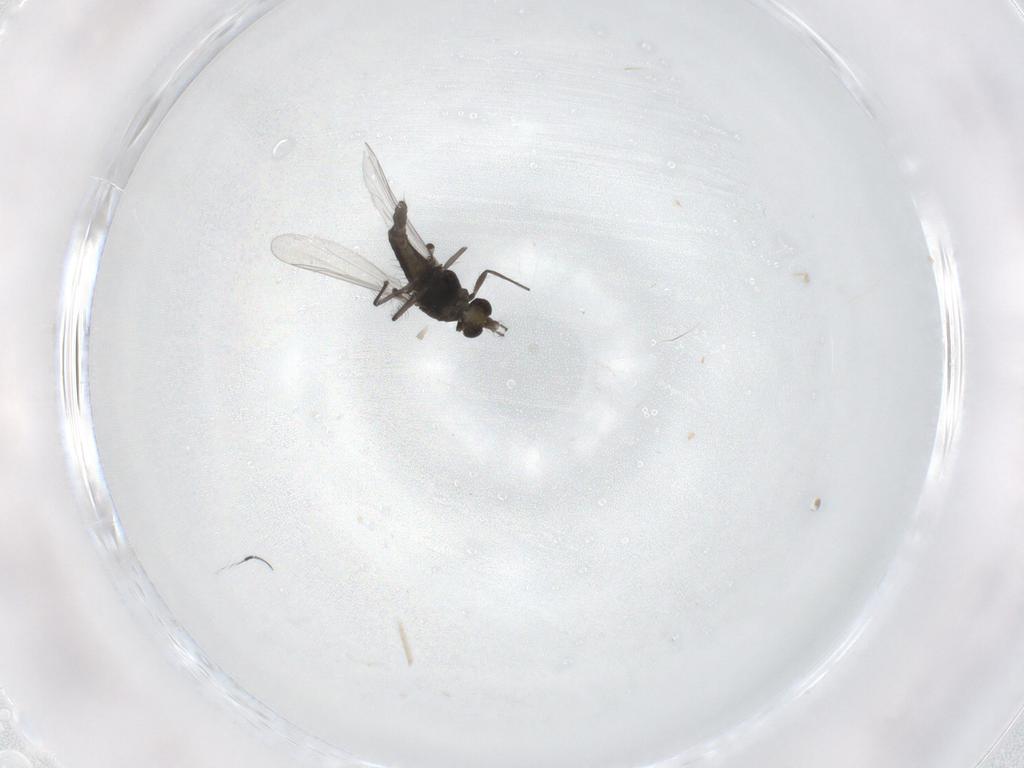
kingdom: Animalia
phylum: Arthropoda
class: Insecta
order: Diptera
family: Chironomidae
